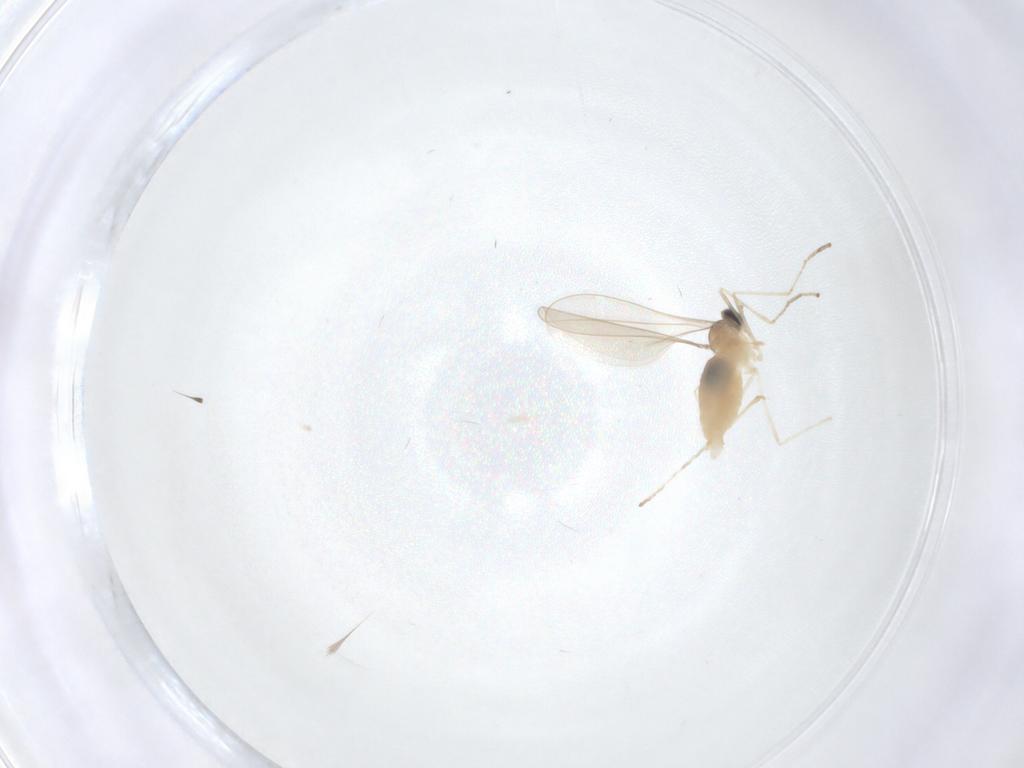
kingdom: Animalia
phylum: Arthropoda
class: Insecta
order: Diptera
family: Cecidomyiidae
